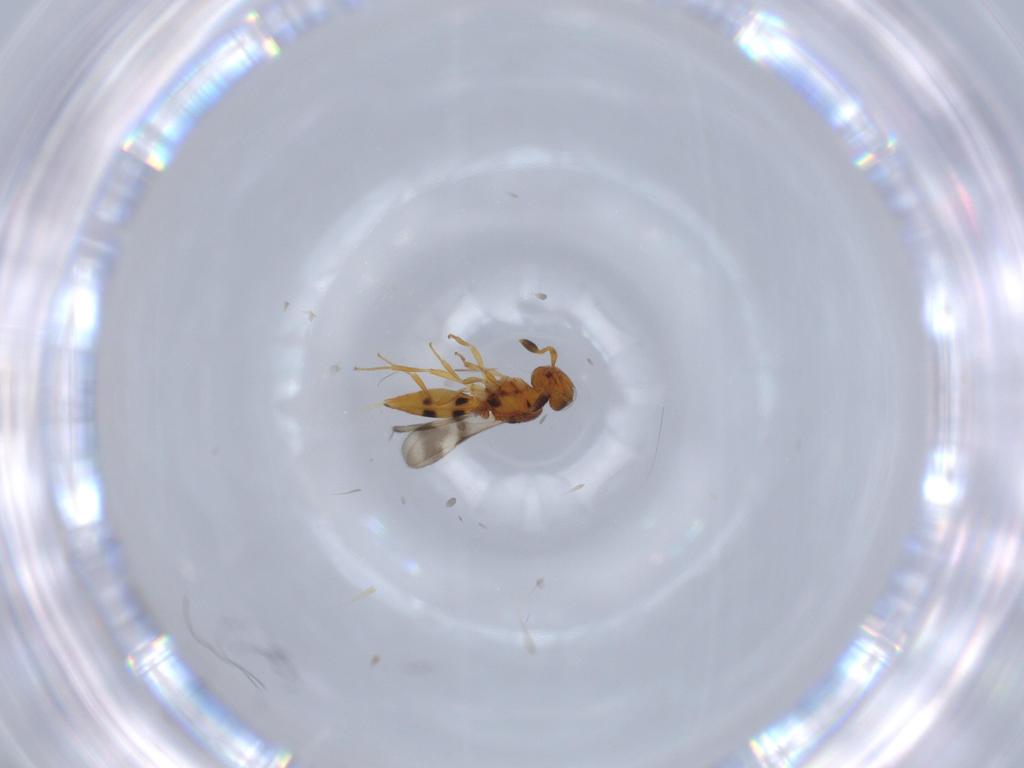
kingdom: Animalia
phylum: Arthropoda
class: Insecta
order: Hymenoptera
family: Scelionidae
